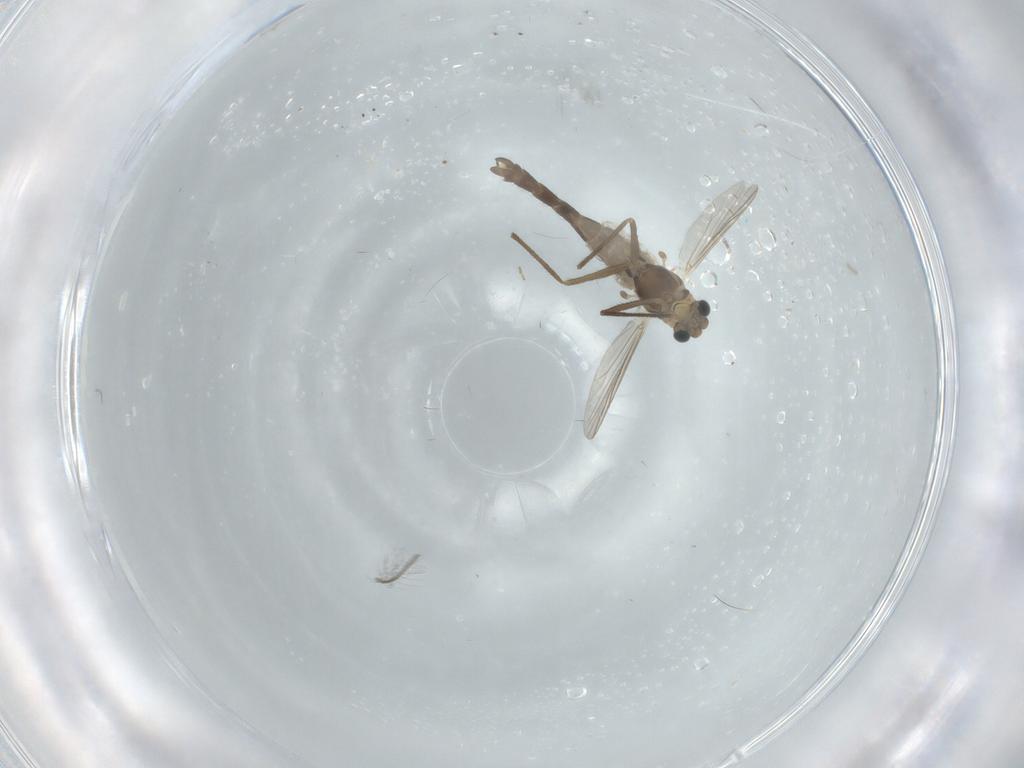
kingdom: Animalia
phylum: Arthropoda
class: Insecta
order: Diptera
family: Chironomidae
